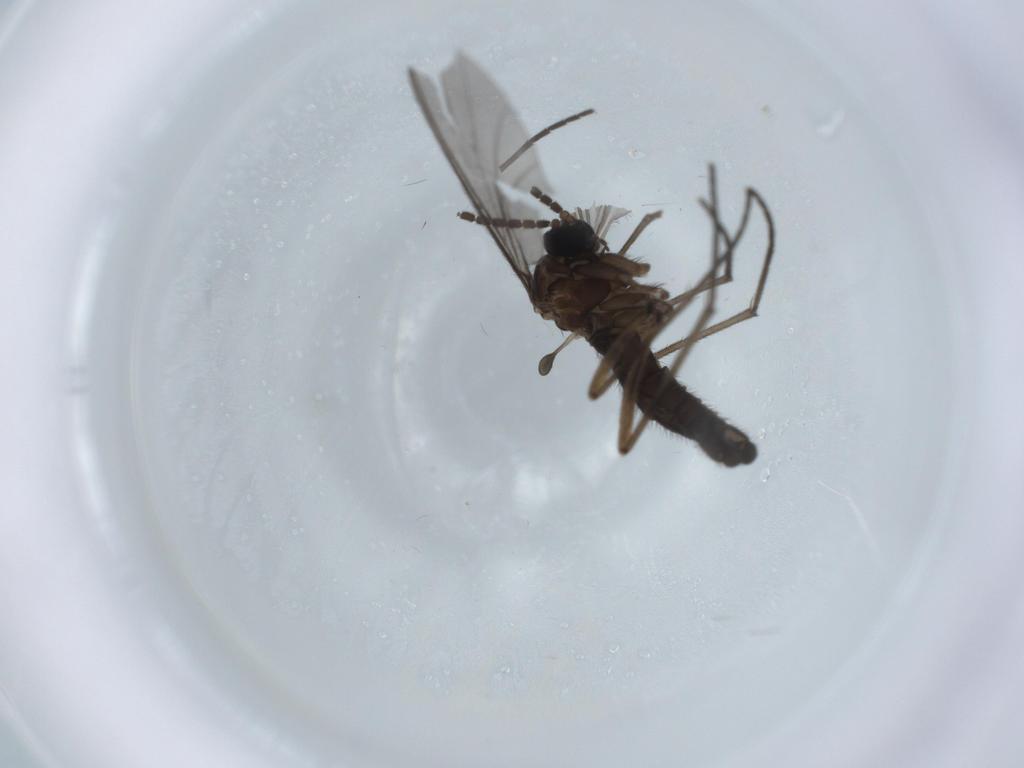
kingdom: Animalia
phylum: Arthropoda
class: Insecta
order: Diptera
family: Sciaridae
